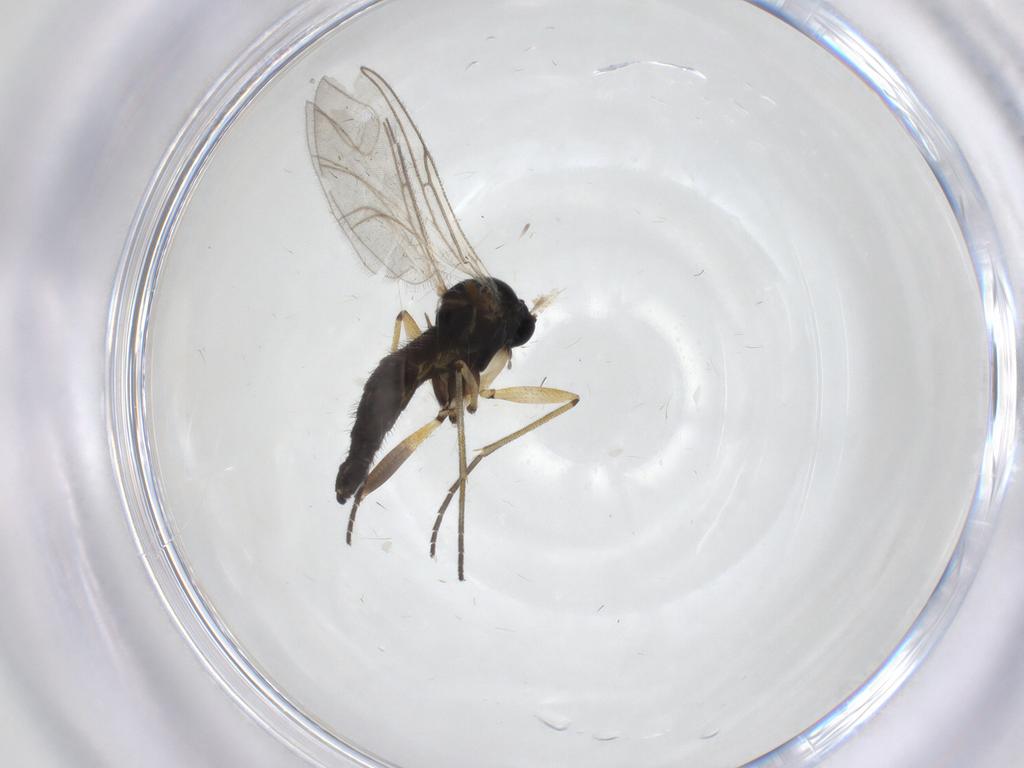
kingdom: Animalia
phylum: Arthropoda
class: Insecta
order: Diptera
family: Sciaridae
